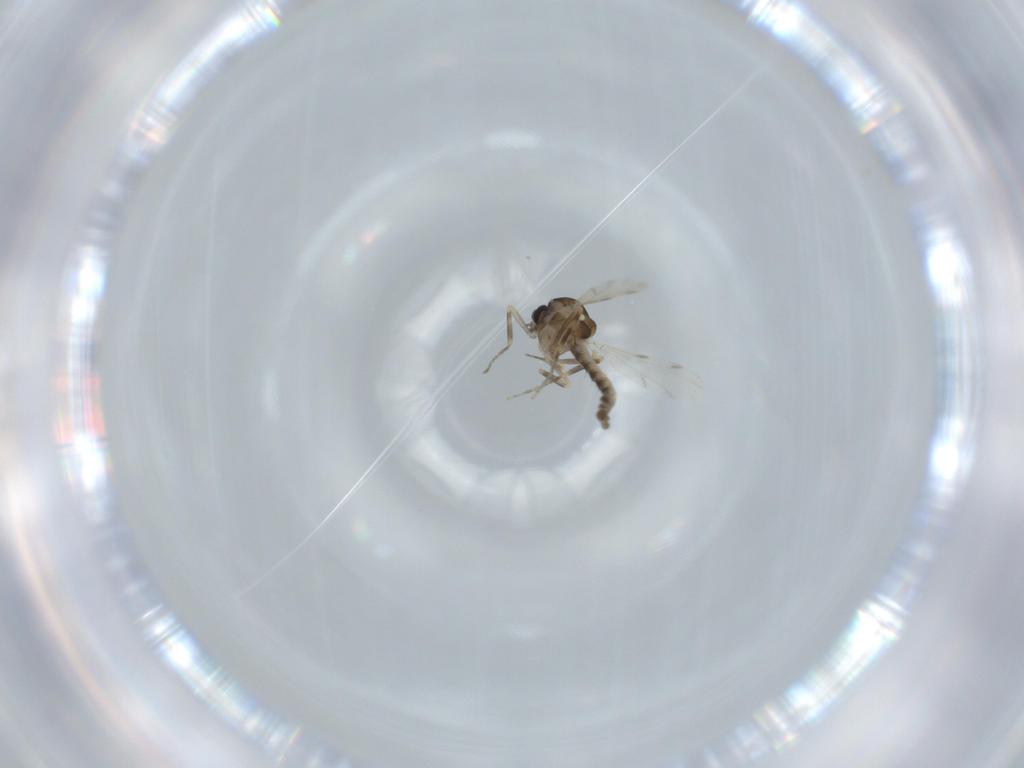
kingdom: Animalia
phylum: Arthropoda
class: Insecta
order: Diptera
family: Ceratopogonidae
